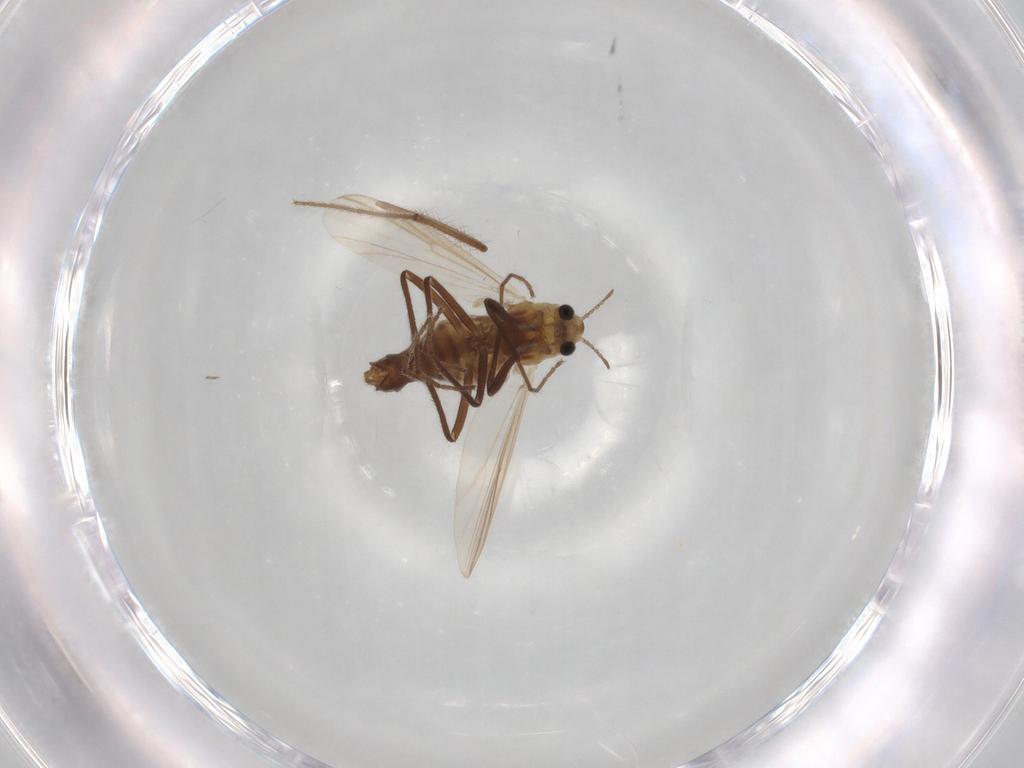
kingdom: Animalia
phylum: Arthropoda
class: Insecta
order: Diptera
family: Chironomidae
